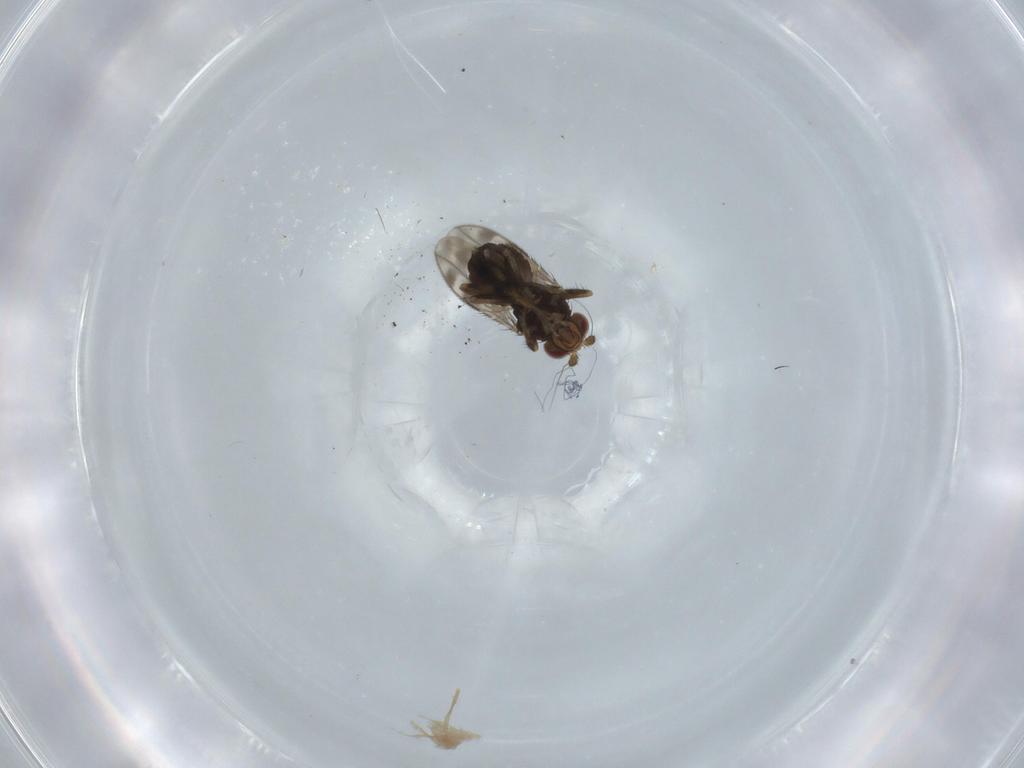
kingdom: Animalia
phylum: Arthropoda
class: Insecta
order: Diptera
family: Cecidomyiidae
